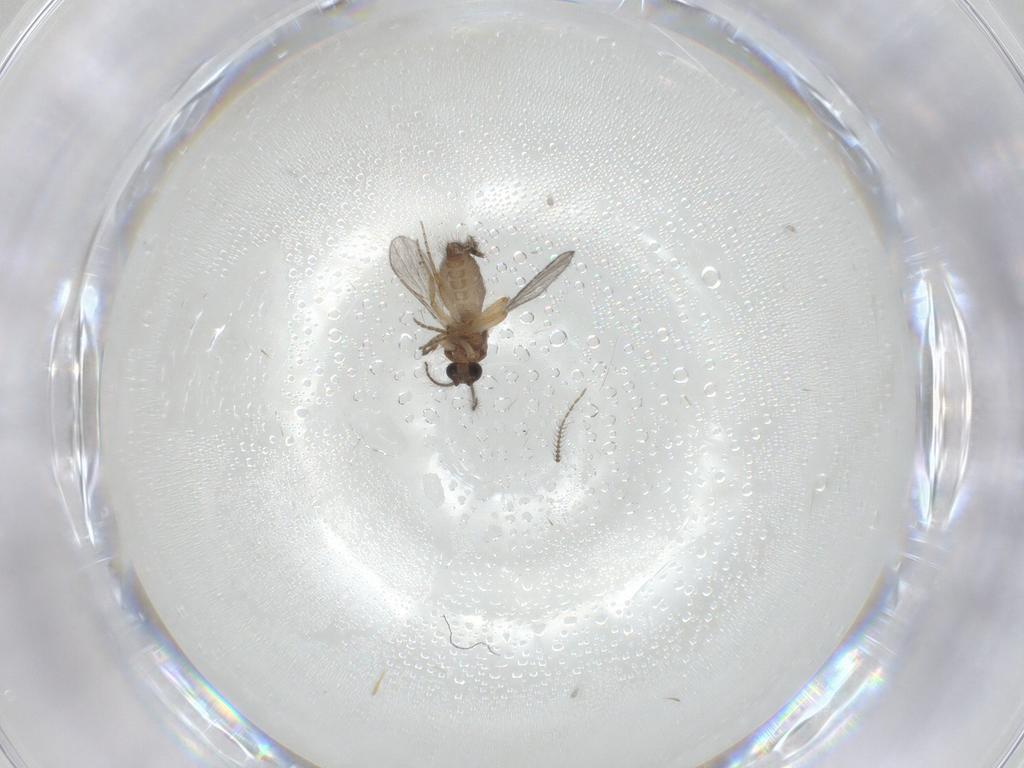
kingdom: Animalia
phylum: Arthropoda
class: Insecta
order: Diptera
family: Ceratopogonidae
